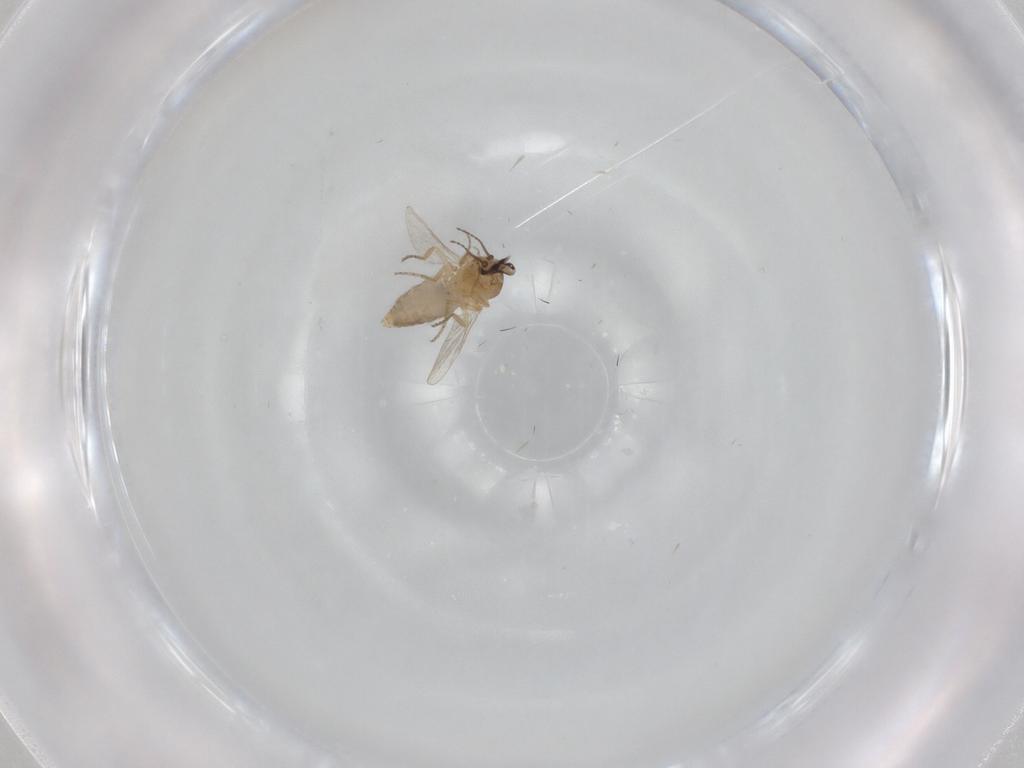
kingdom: Animalia
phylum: Arthropoda
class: Insecta
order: Diptera
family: Ceratopogonidae
